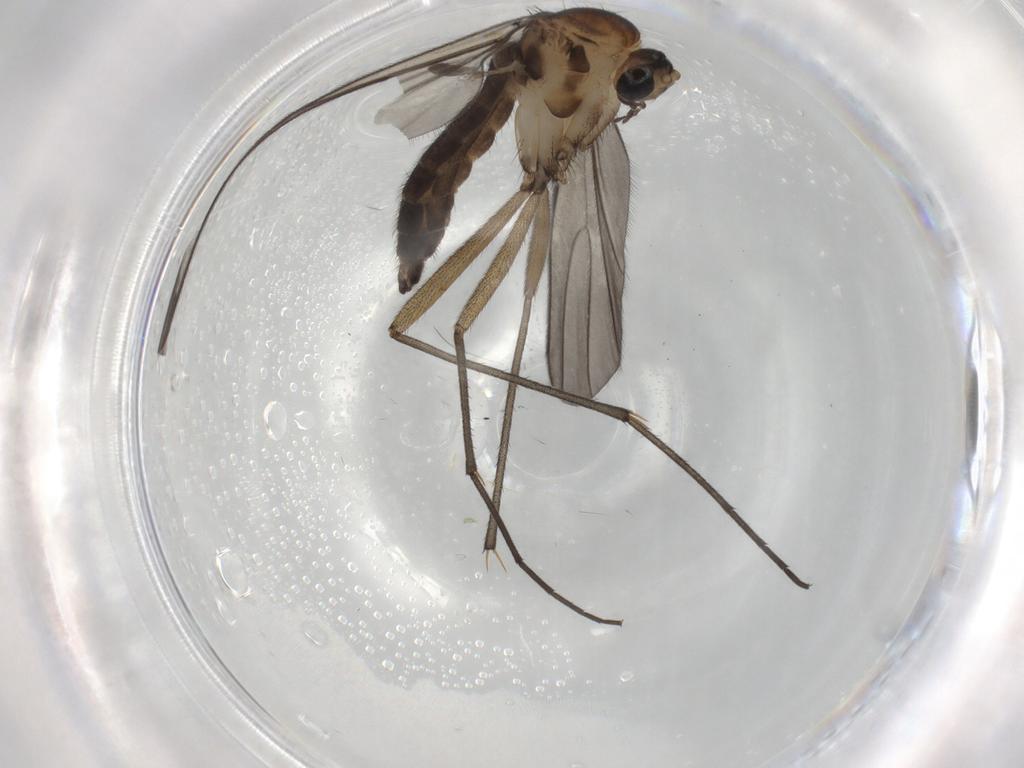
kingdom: Animalia
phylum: Arthropoda
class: Insecta
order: Diptera
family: Sciaridae
